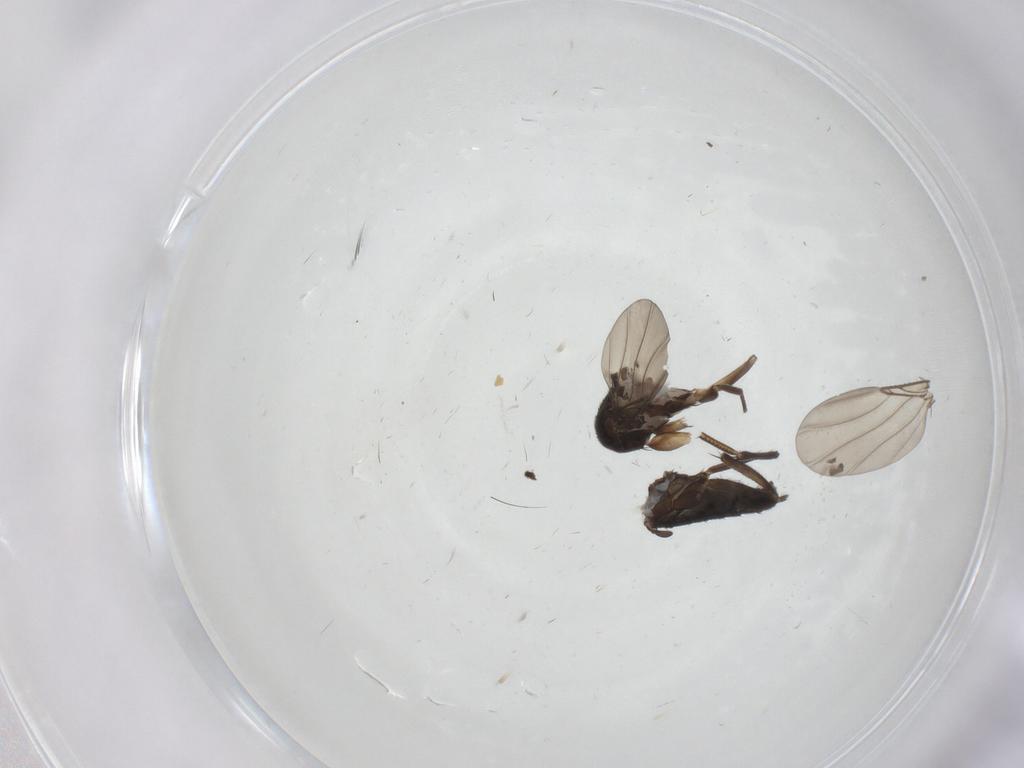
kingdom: Animalia
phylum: Arthropoda
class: Insecta
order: Diptera
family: Phoridae
